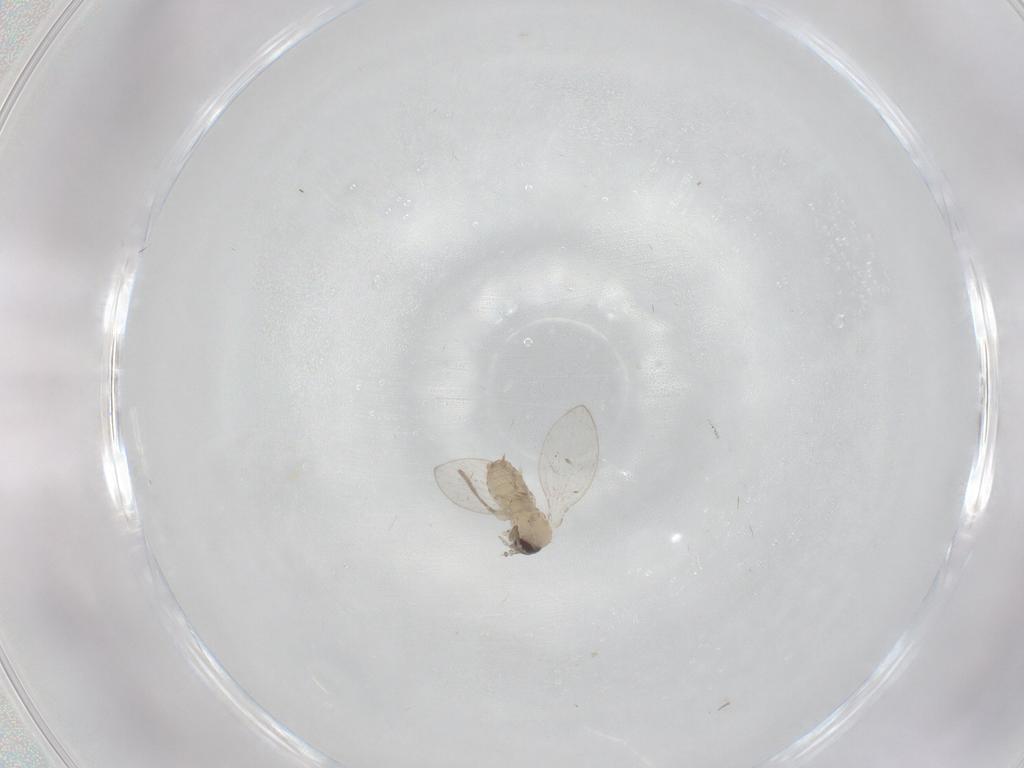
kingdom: Animalia
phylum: Arthropoda
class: Insecta
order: Diptera
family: Psychodidae
